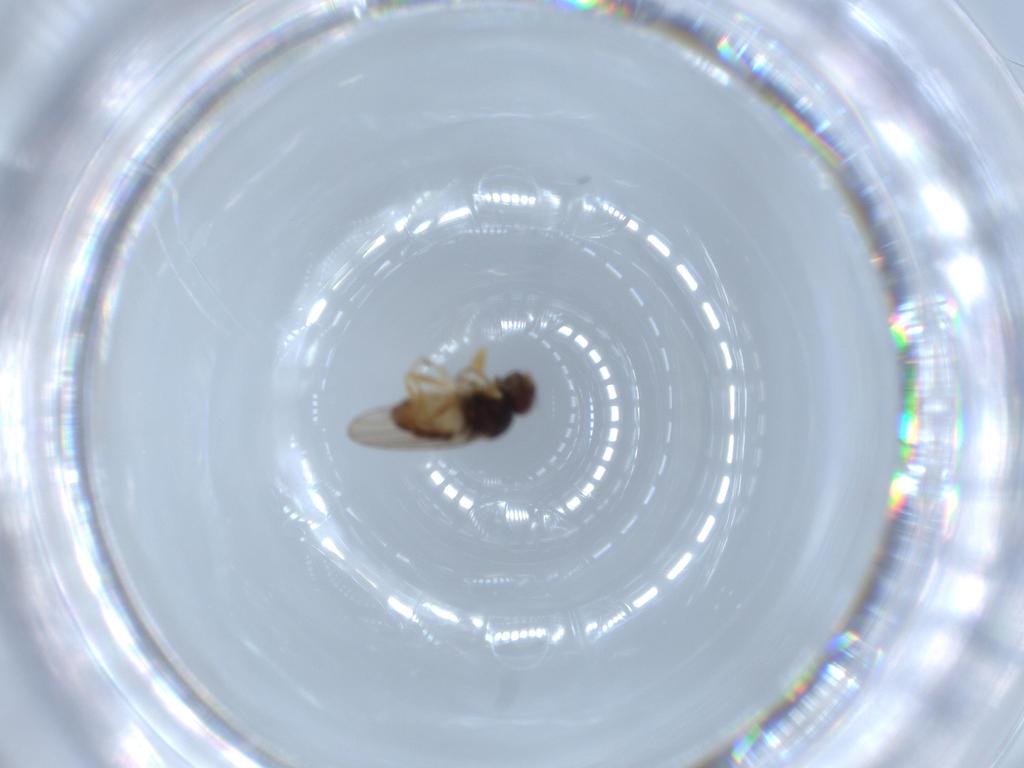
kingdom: Animalia
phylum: Arthropoda
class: Insecta
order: Diptera
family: Chloropidae
